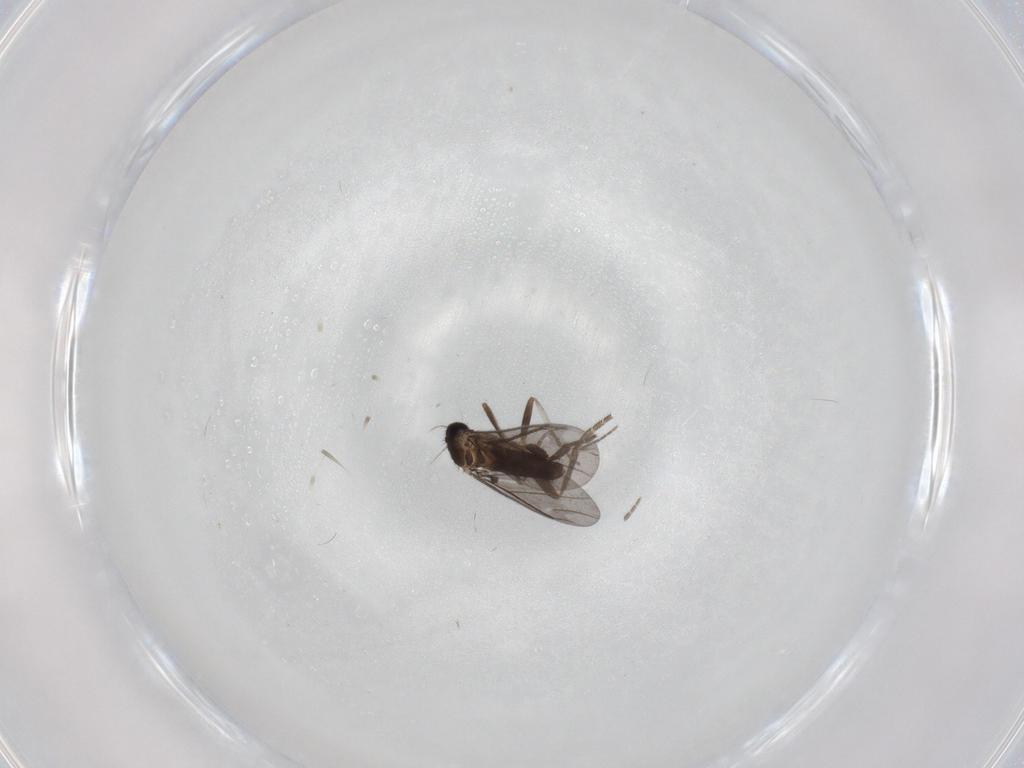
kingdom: Animalia
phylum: Arthropoda
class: Insecta
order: Diptera
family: Phoridae
